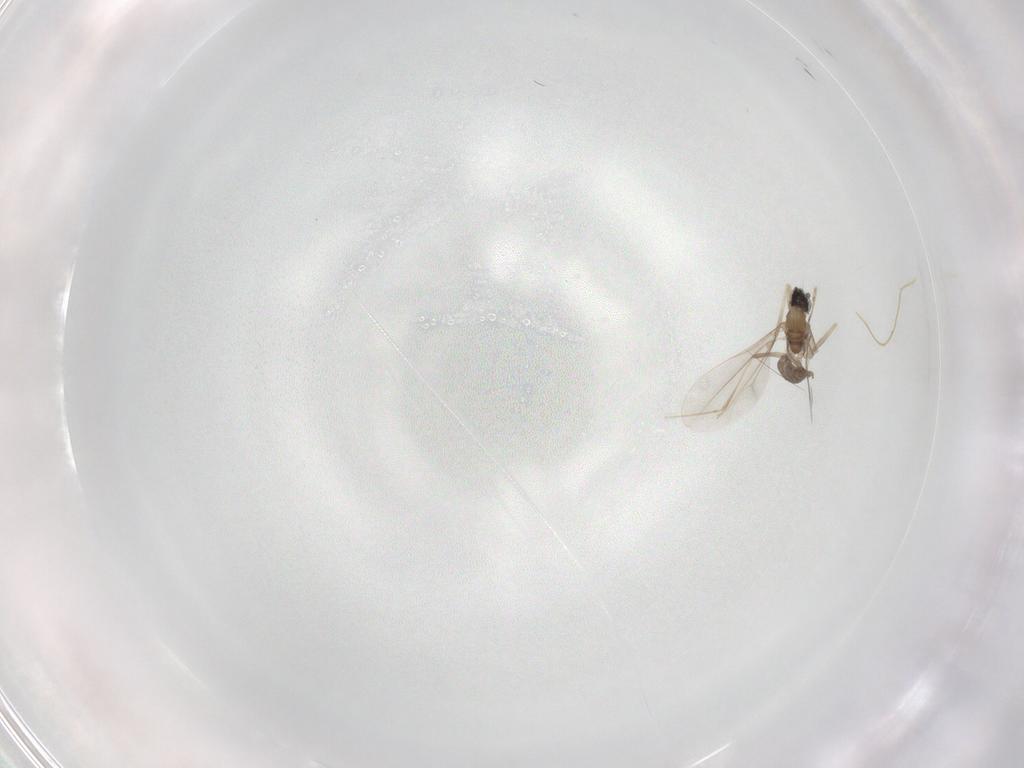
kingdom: Animalia
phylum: Arthropoda
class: Insecta
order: Diptera
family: Cecidomyiidae
